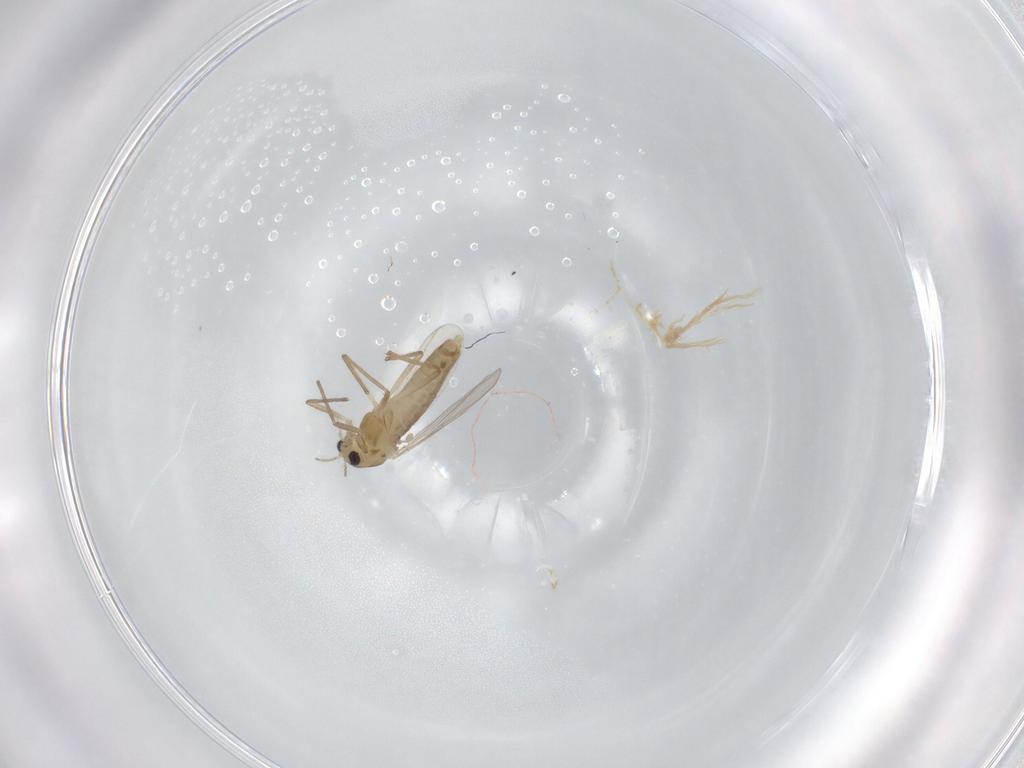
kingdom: Animalia
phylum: Arthropoda
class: Insecta
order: Diptera
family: Chironomidae
